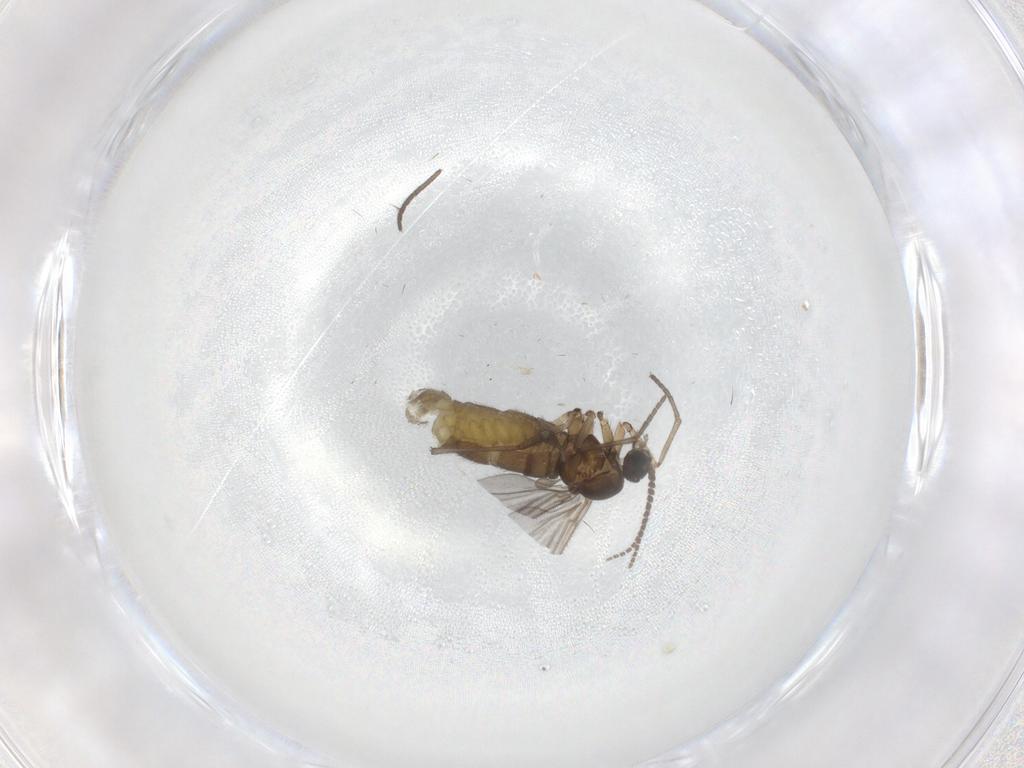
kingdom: Animalia
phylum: Arthropoda
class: Insecta
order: Diptera
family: Sciaridae
